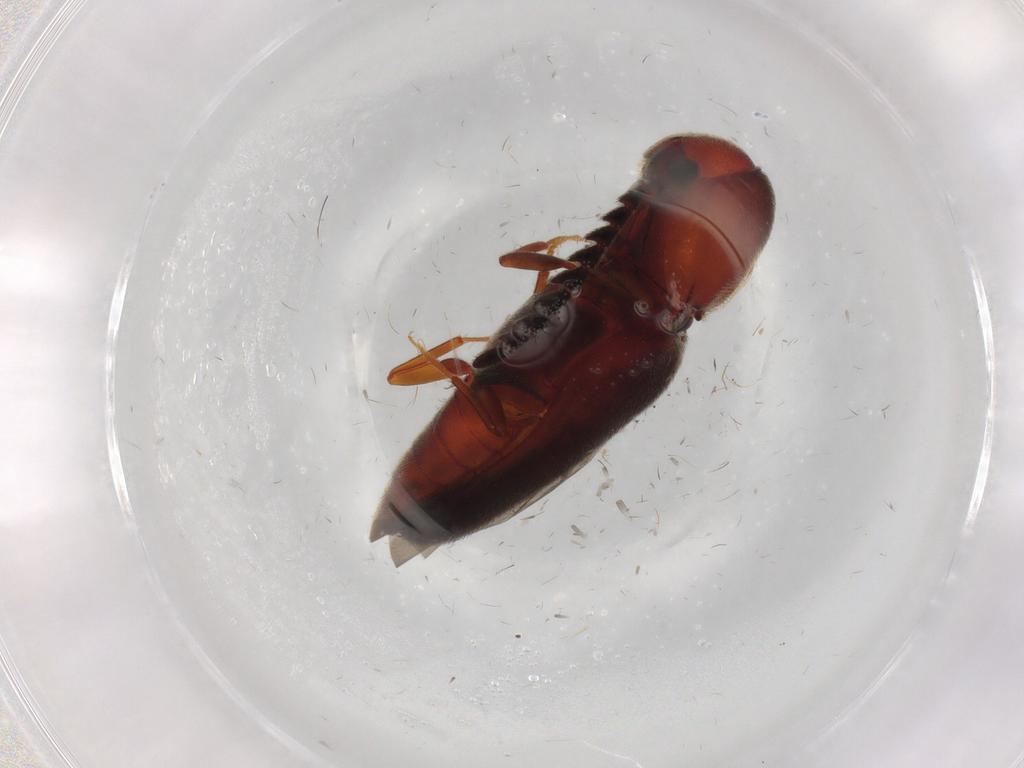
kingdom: Animalia
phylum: Arthropoda
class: Insecta
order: Coleoptera
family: Eucnemidae
